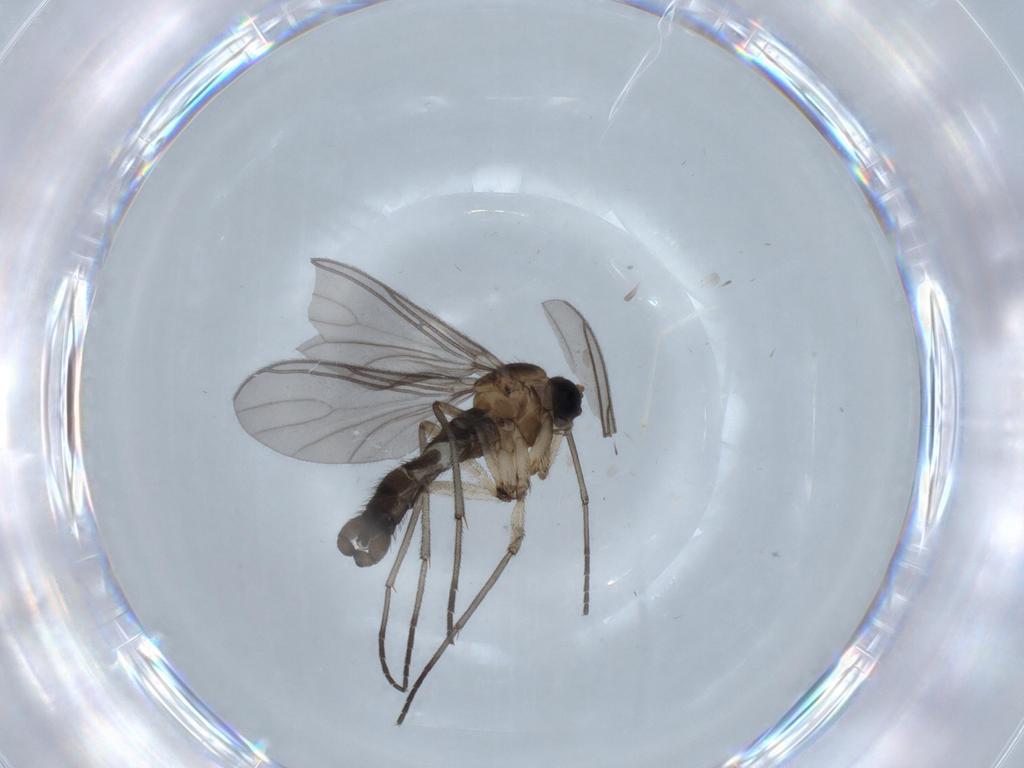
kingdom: Animalia
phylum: Arthropoda
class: Insecta
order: Diptera
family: Sciaridae
